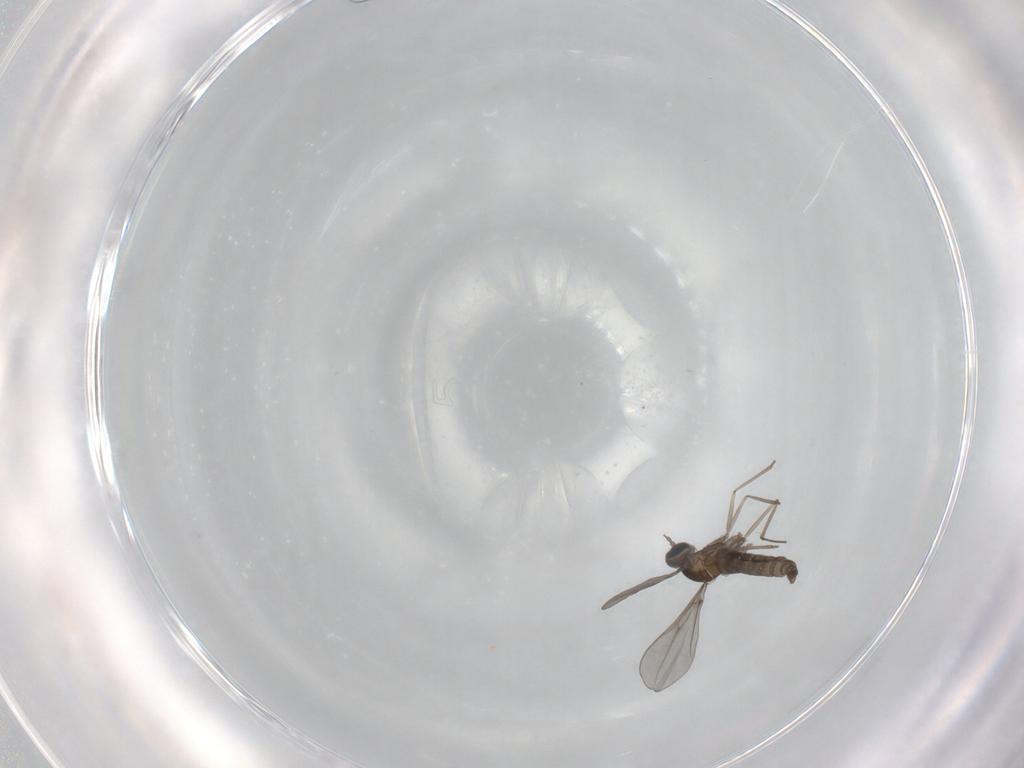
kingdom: Animalia
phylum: Arthropoda
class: Insecta
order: Diptera
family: Cecidomyiidae
